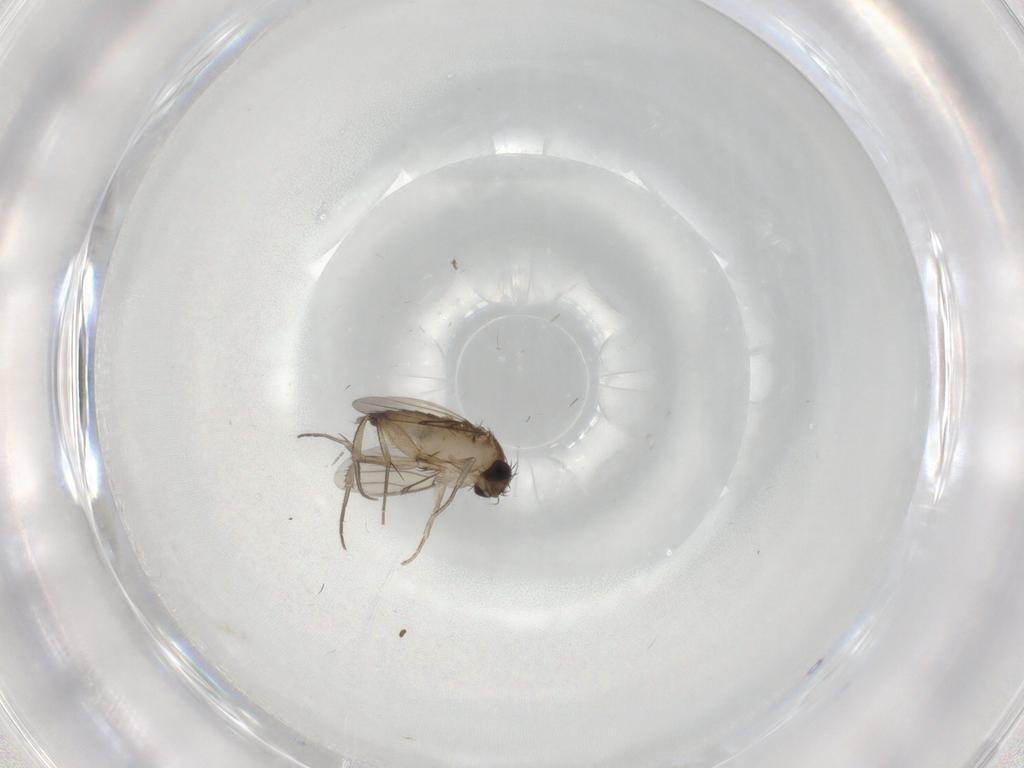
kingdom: Animalia
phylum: Arthropoda
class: Insecta
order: Diptera
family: Phoridae
